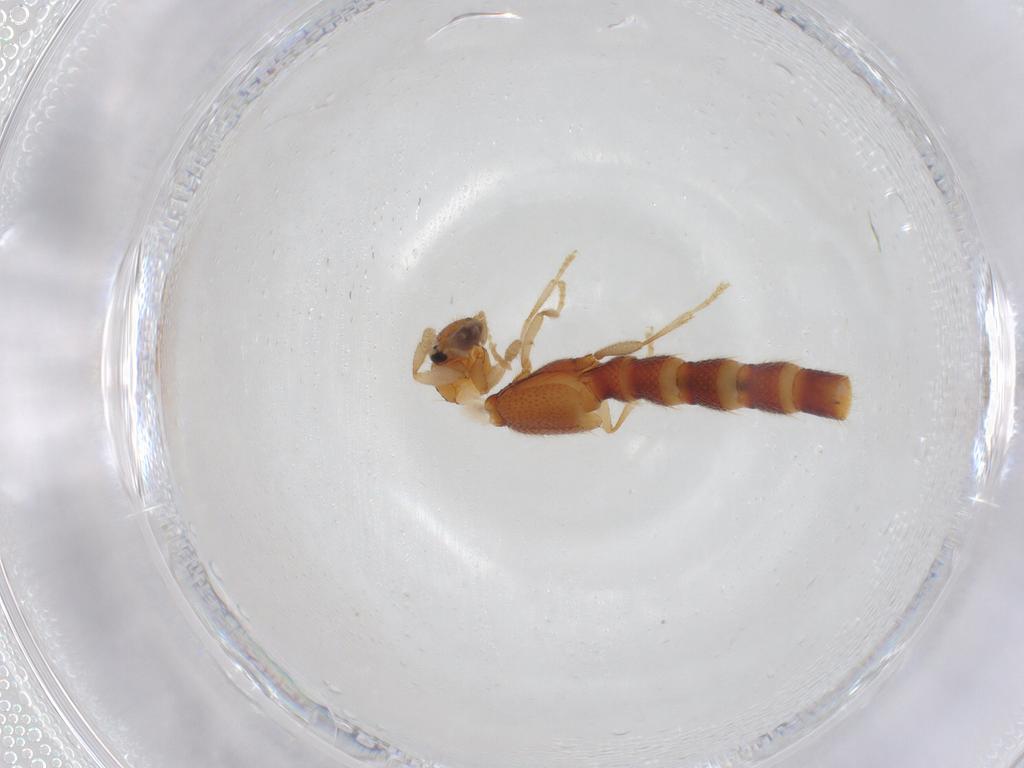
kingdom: Animalia
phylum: Arthropoda
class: Insecta
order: Coleoptera
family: Staphylinidae
